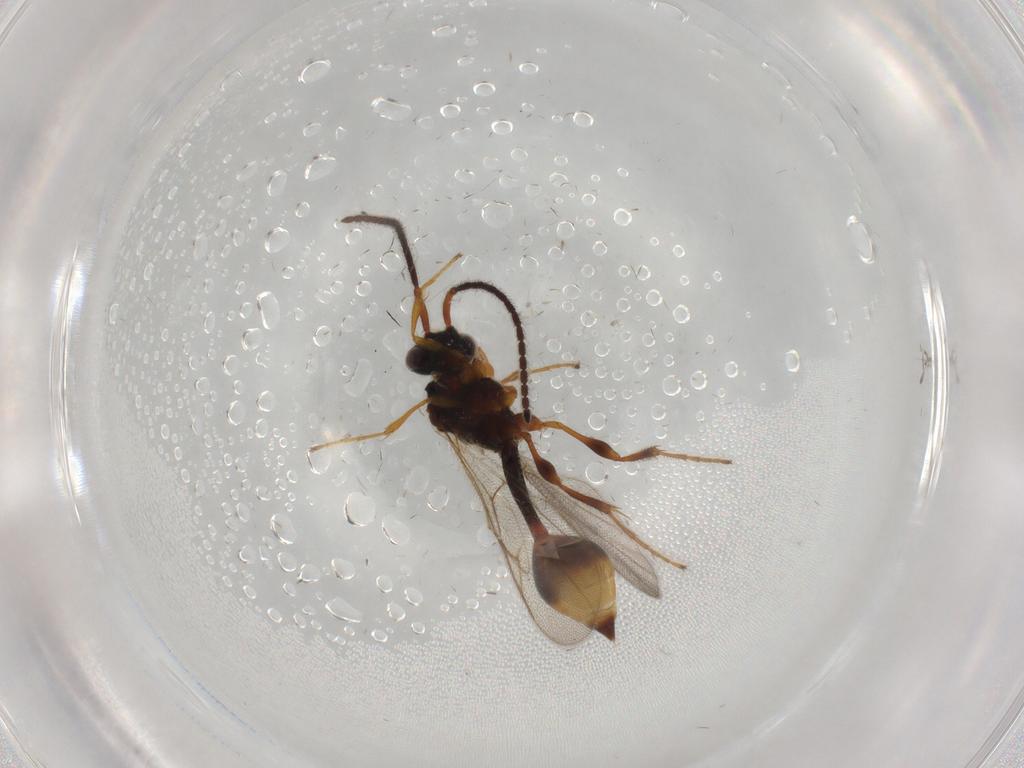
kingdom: Animalia
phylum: Arthropoda
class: Insecta
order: Hymenoptera
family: Diapriidae
